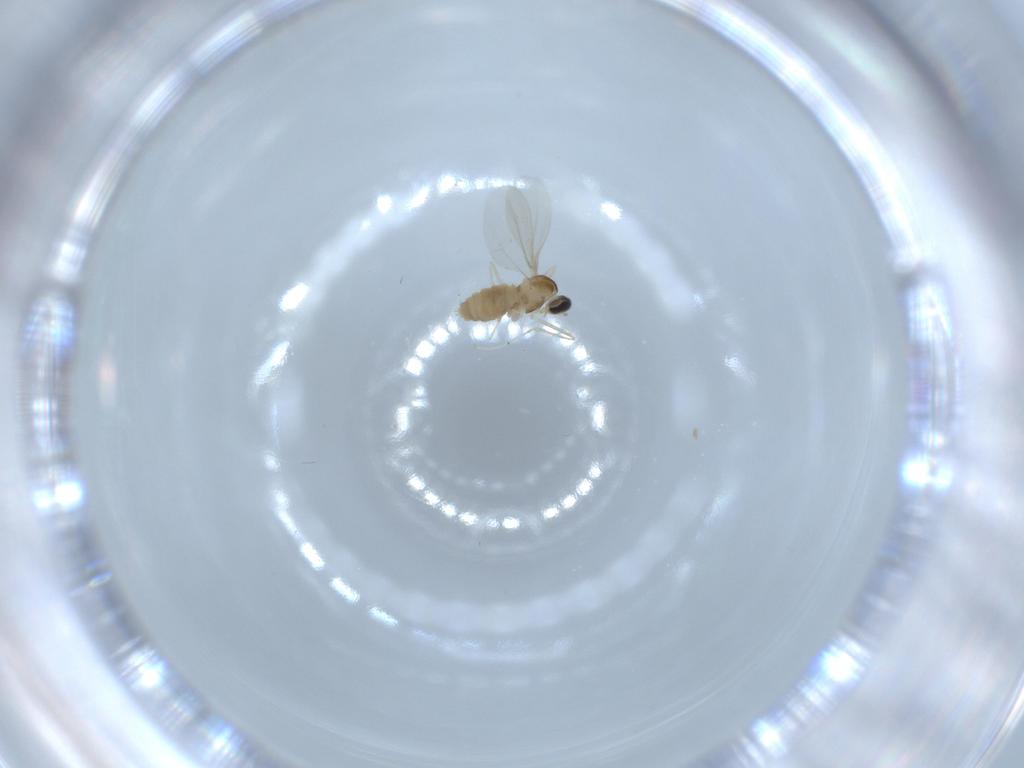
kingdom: Animalia
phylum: Arthropoda
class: Insecta
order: Diptera
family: Cecidomyiidae
